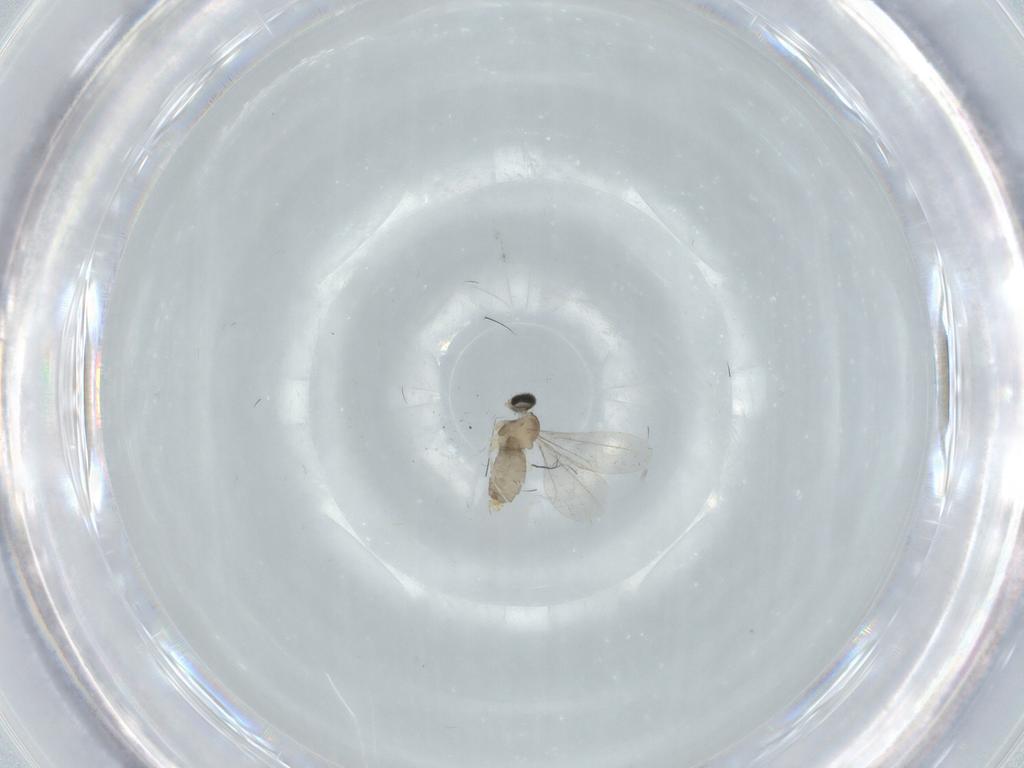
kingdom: Animalia
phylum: Arthropoda
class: Insecta
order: Diptera
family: Cecidomyiidae
